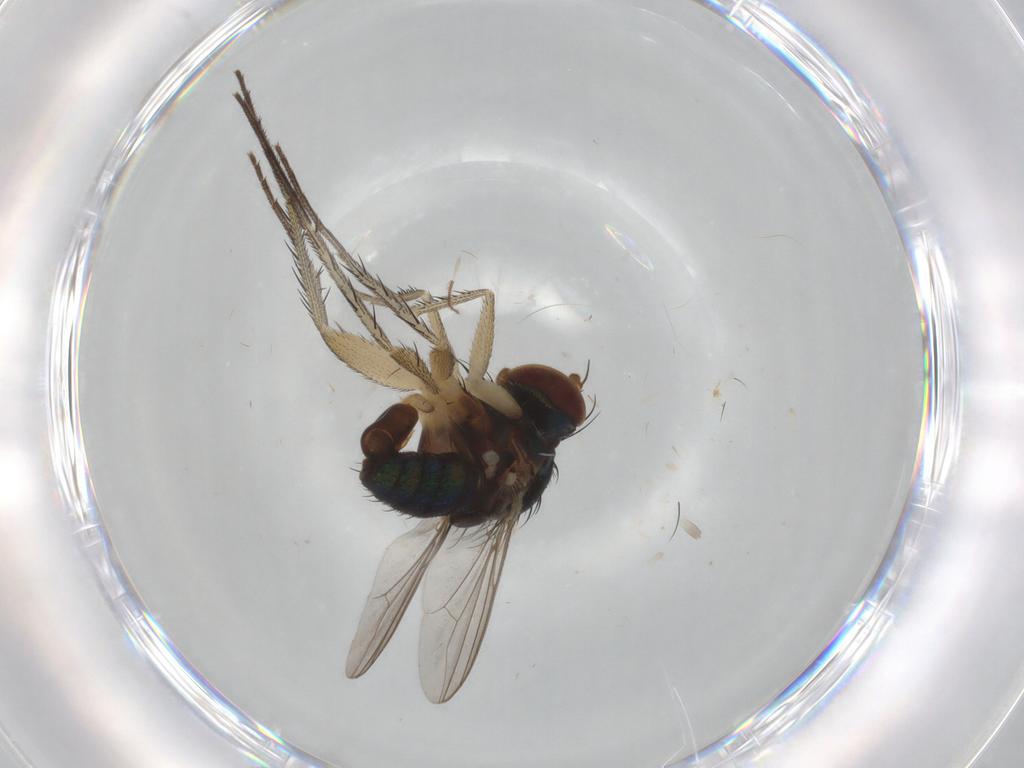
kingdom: Animalia
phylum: Arthropoda
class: Insecta
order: Diptera
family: Dolichopodidae
